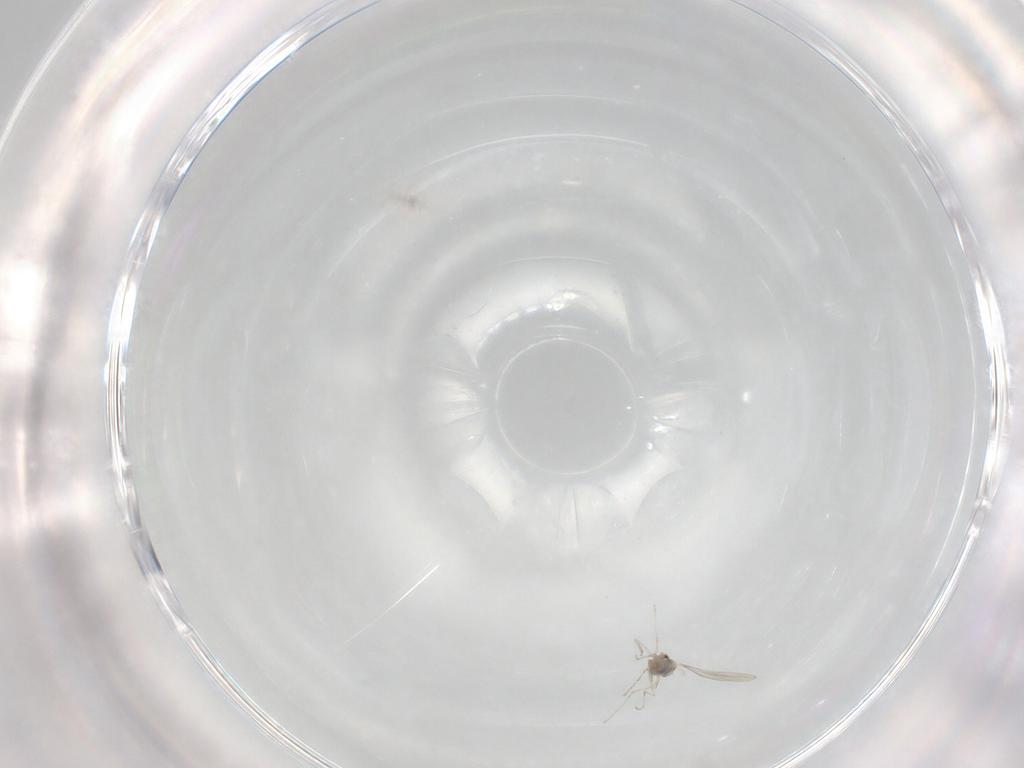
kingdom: Animalia
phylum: Arthropoda
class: Insecta
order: Diptera
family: Cecidomyiidae
